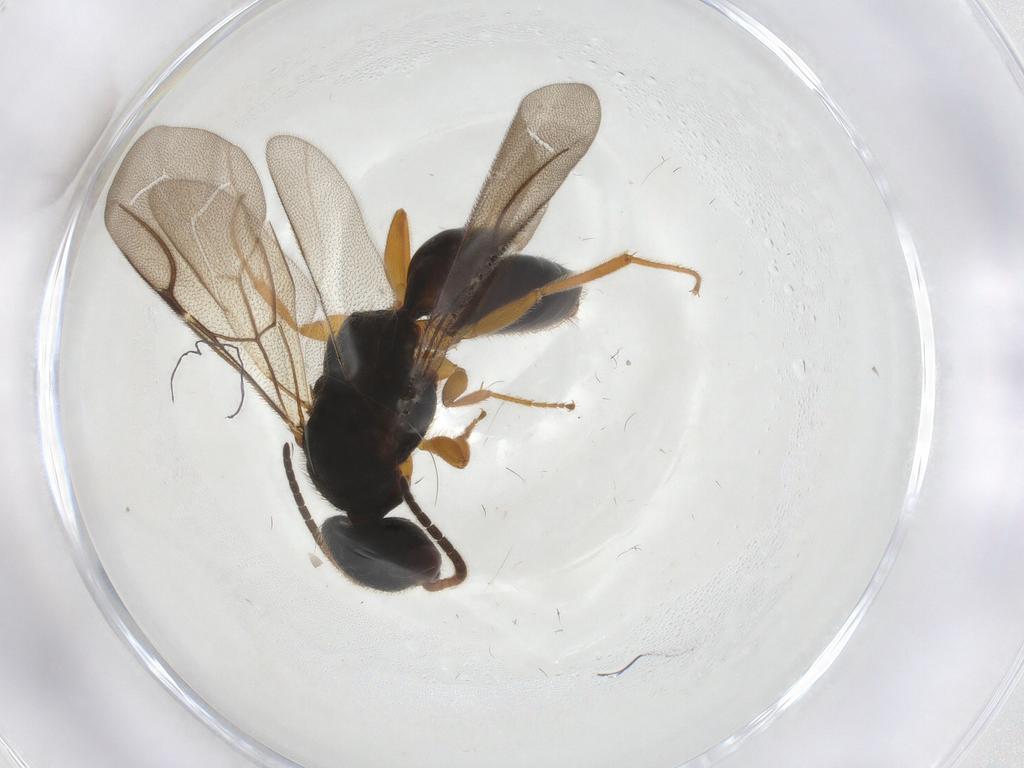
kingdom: Animalia
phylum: Arthropoda
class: Insecta
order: Hymenoptera
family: Bethylidae
